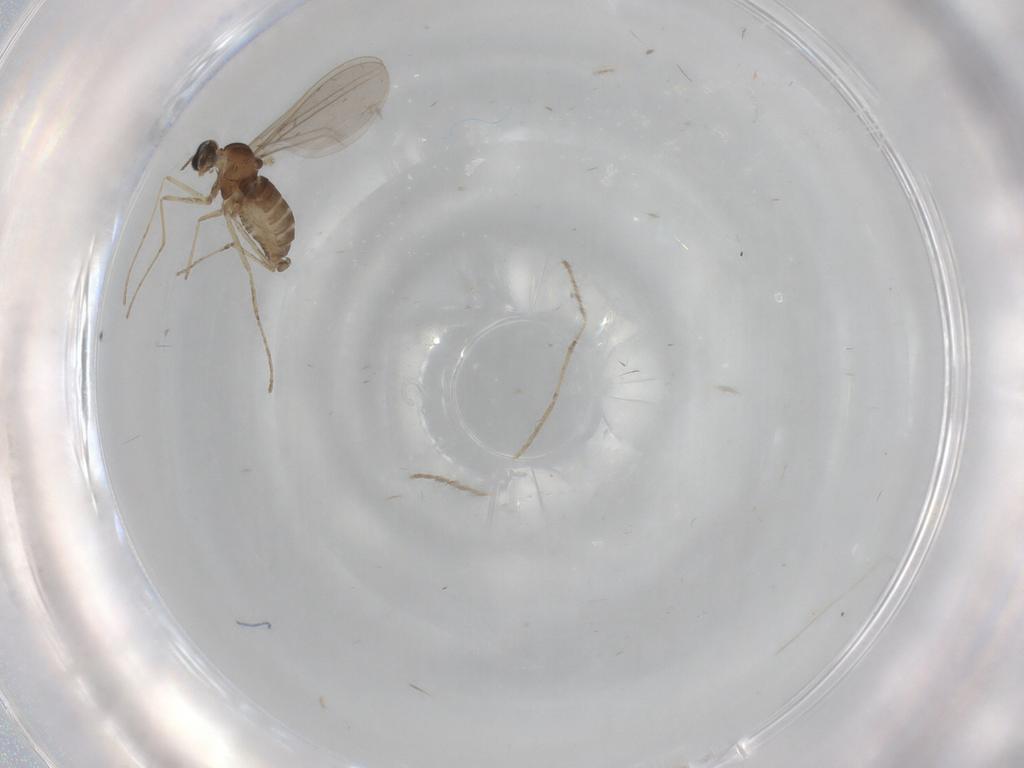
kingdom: Animalia
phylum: Arthropoda
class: Insecta
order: Diptera
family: Cecidomyiidae
